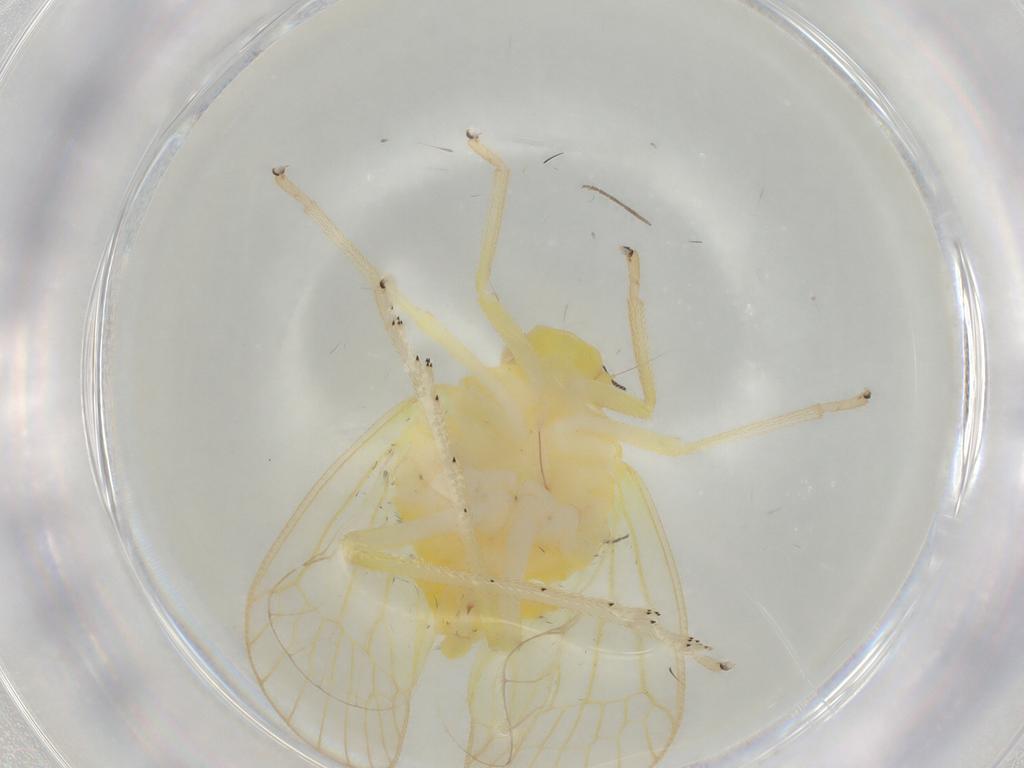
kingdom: Animalia
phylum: Arthropoda
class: Insecta
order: Hemiptera
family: Tropiduchidae
